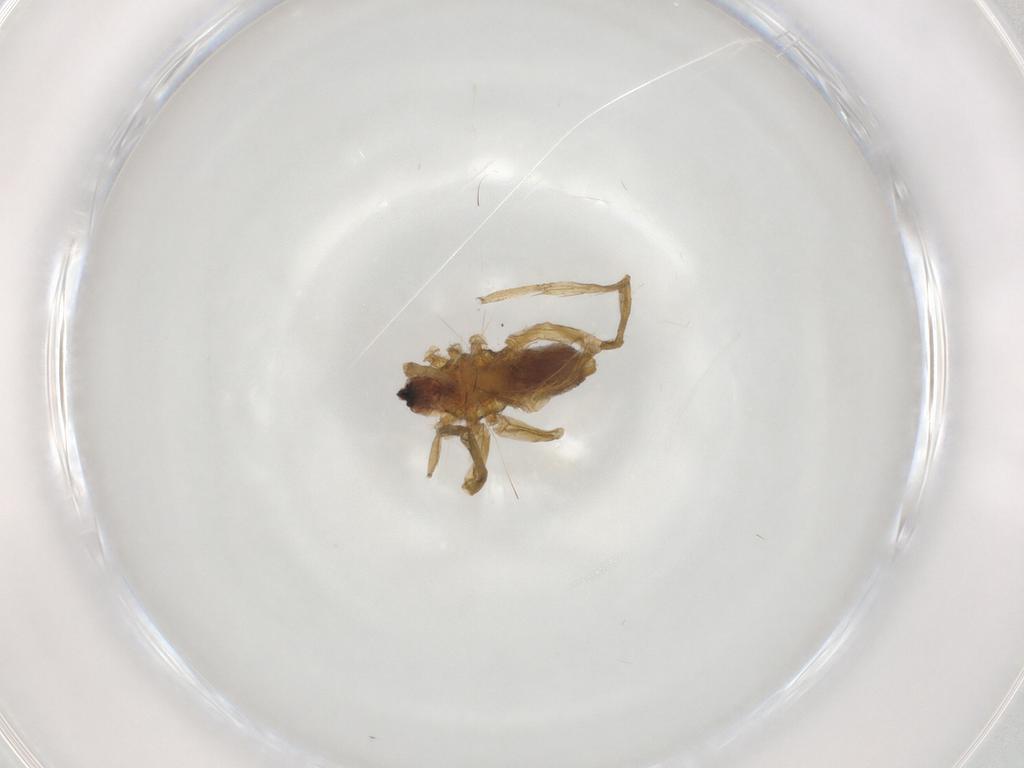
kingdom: Animalia
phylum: Arthropoda
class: Arachnida
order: Araneae
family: Lycosidae
